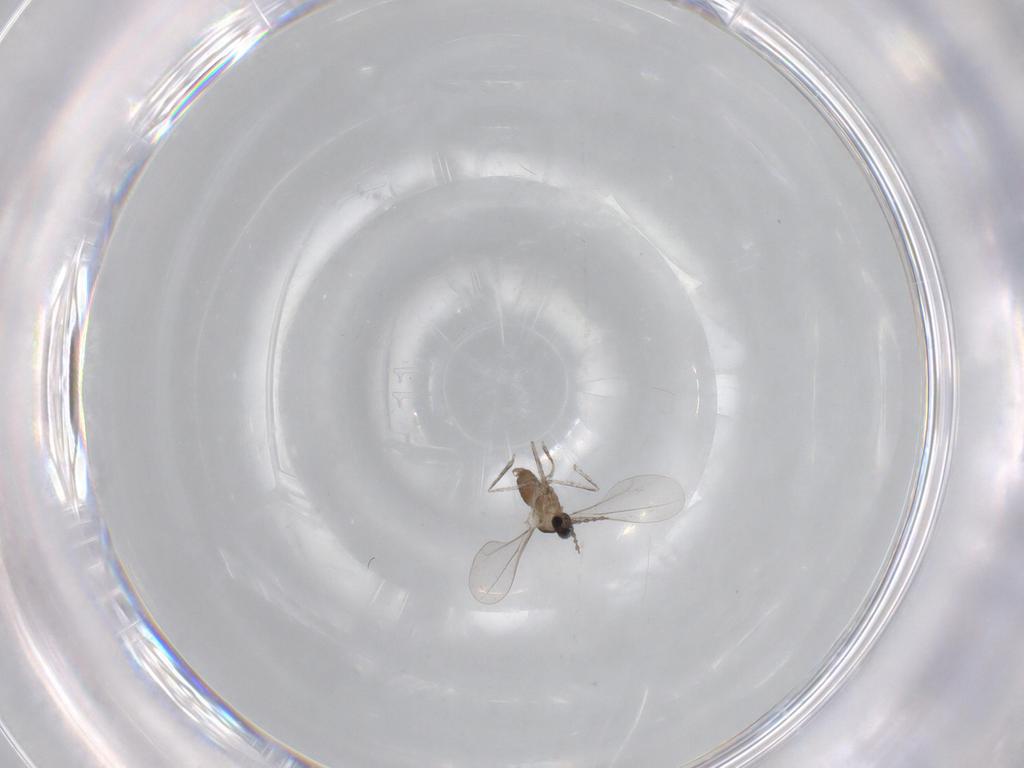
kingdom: Animalia
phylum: Arthropoda
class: Insecta
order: Diptera
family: Cecidomyiidae
